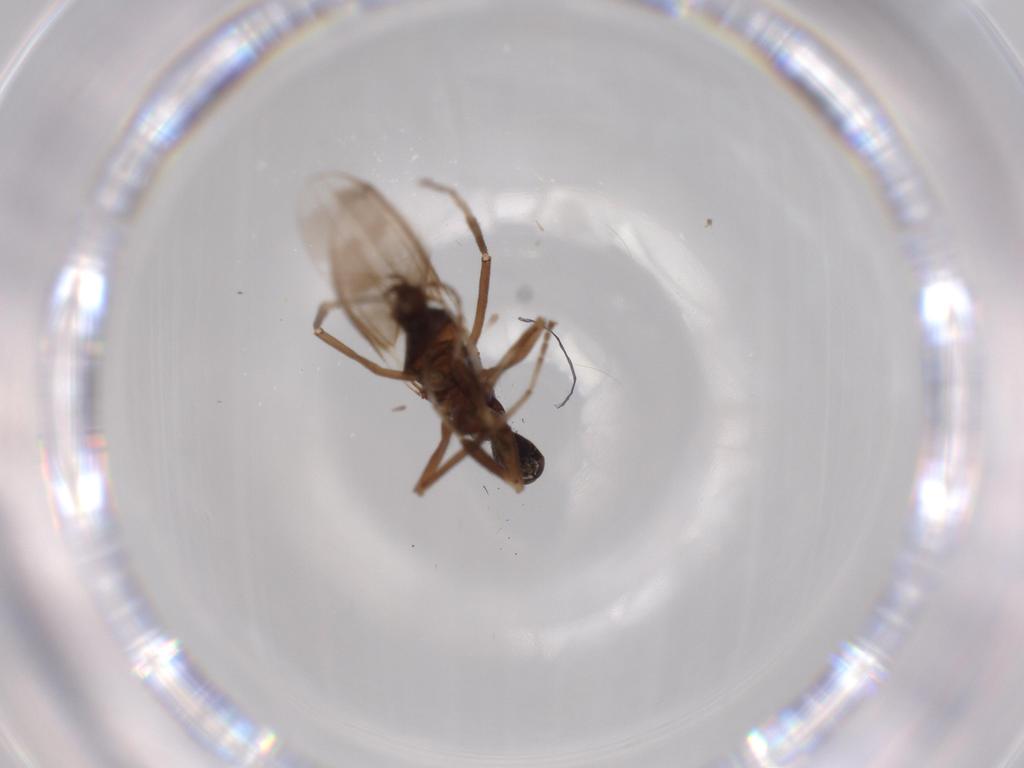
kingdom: Animalia
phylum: Arthropoda
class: Insecta
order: Diptera
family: Hybotidae
